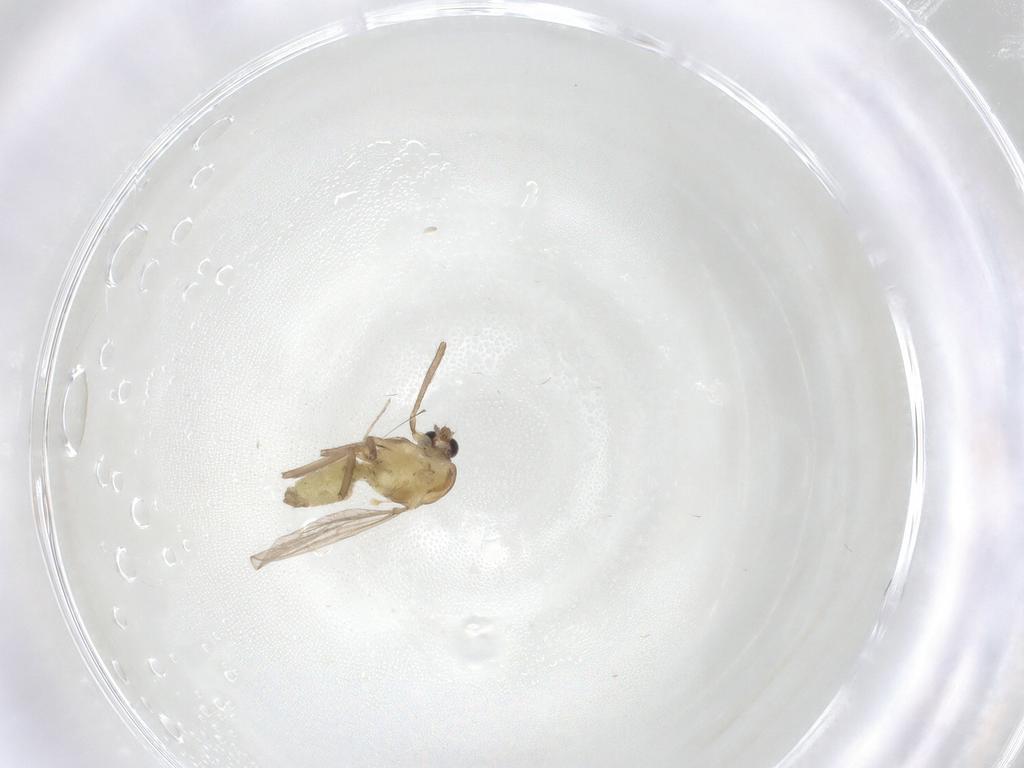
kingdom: Animalia
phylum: Arthropoda
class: Insecta
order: Diptera
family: Chironomidae
